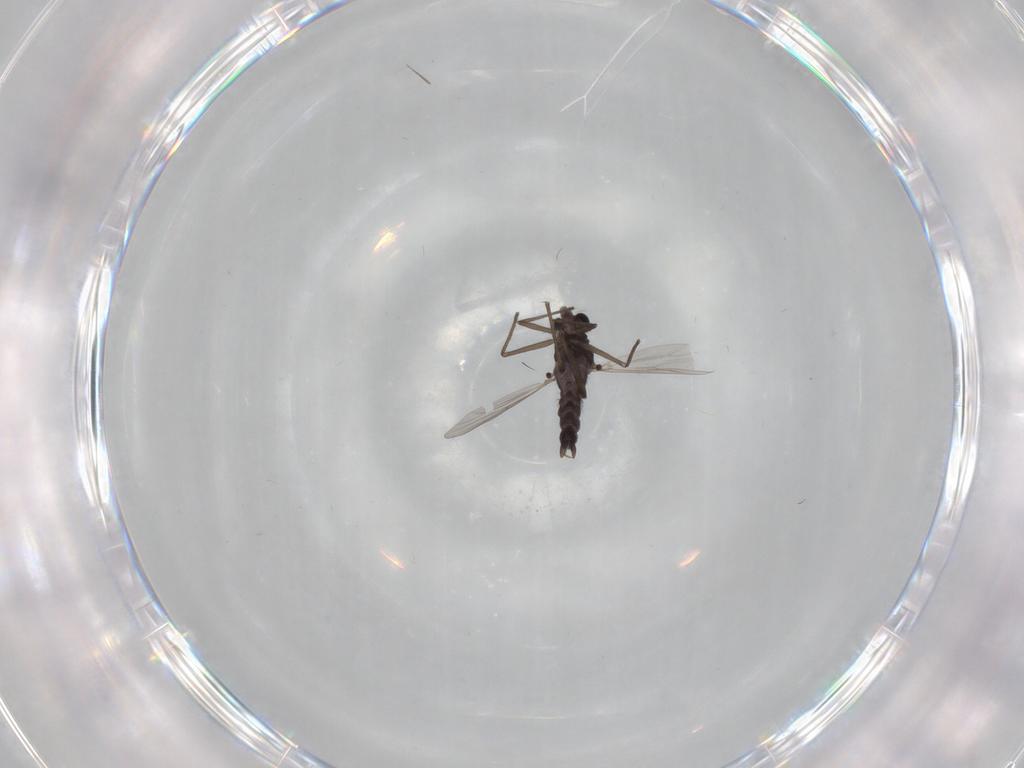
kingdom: Animalia
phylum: Arthropoda
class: Insecta
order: Diptera
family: Chironomidae
